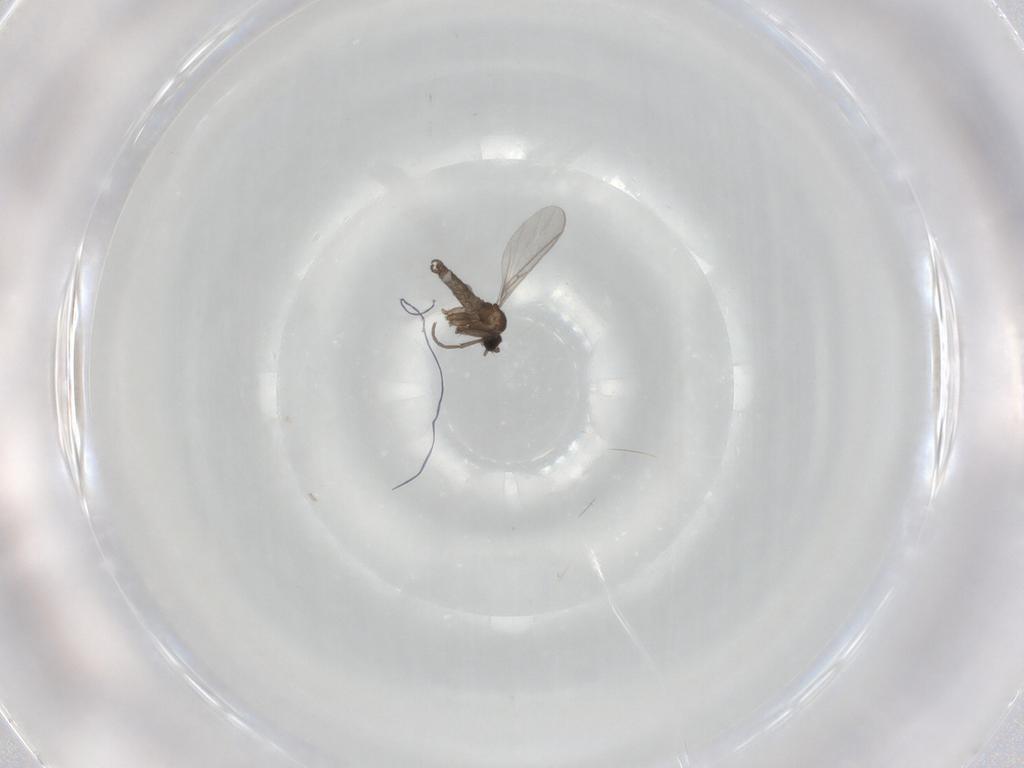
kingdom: Animalia
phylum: Arthropoda
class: Insecta
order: Diptera
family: Sciaridae
